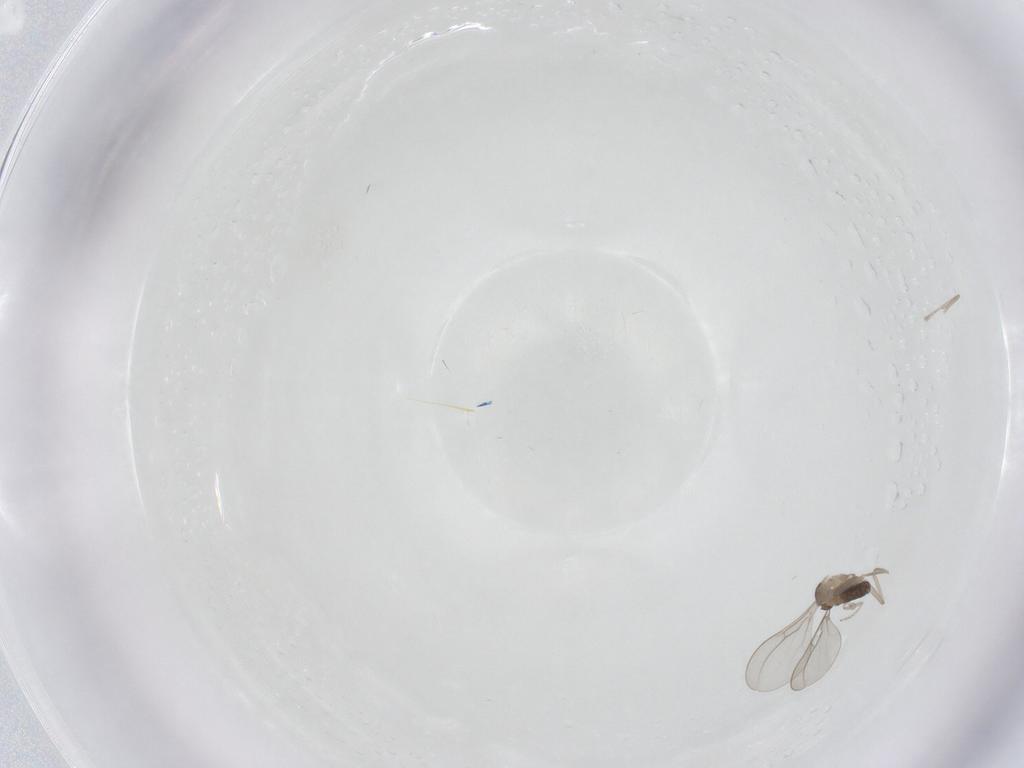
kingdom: Animalia
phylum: Arthropoda
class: Insecta
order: Diptera
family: Cecidomyiidae
